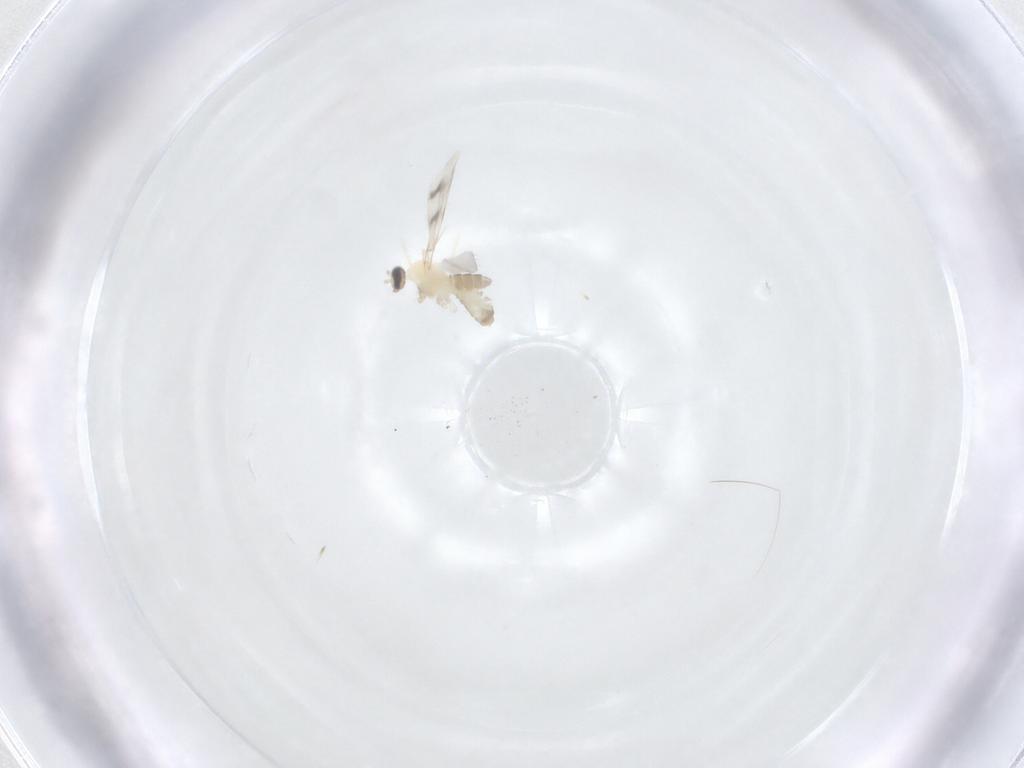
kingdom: Animalia
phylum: Arthropoda
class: Insecta
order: Diptera
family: Cecidomyiidae
